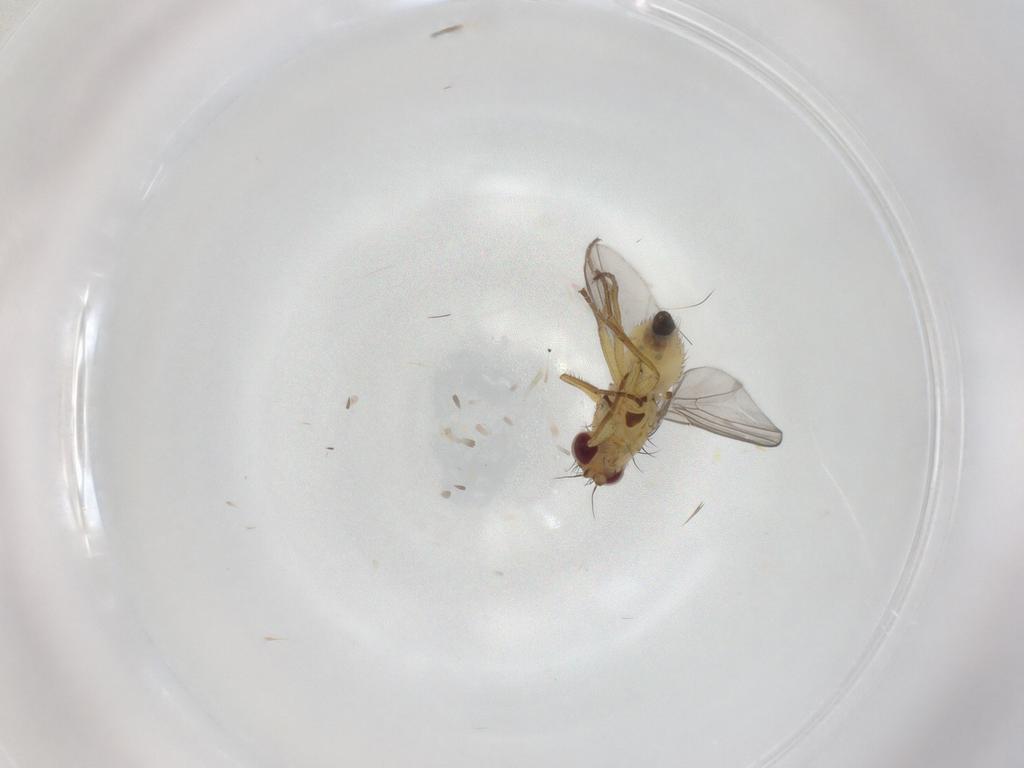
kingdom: Animalia
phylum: Arthropoda
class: Insecta
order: Diptera
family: Agromyzidae
